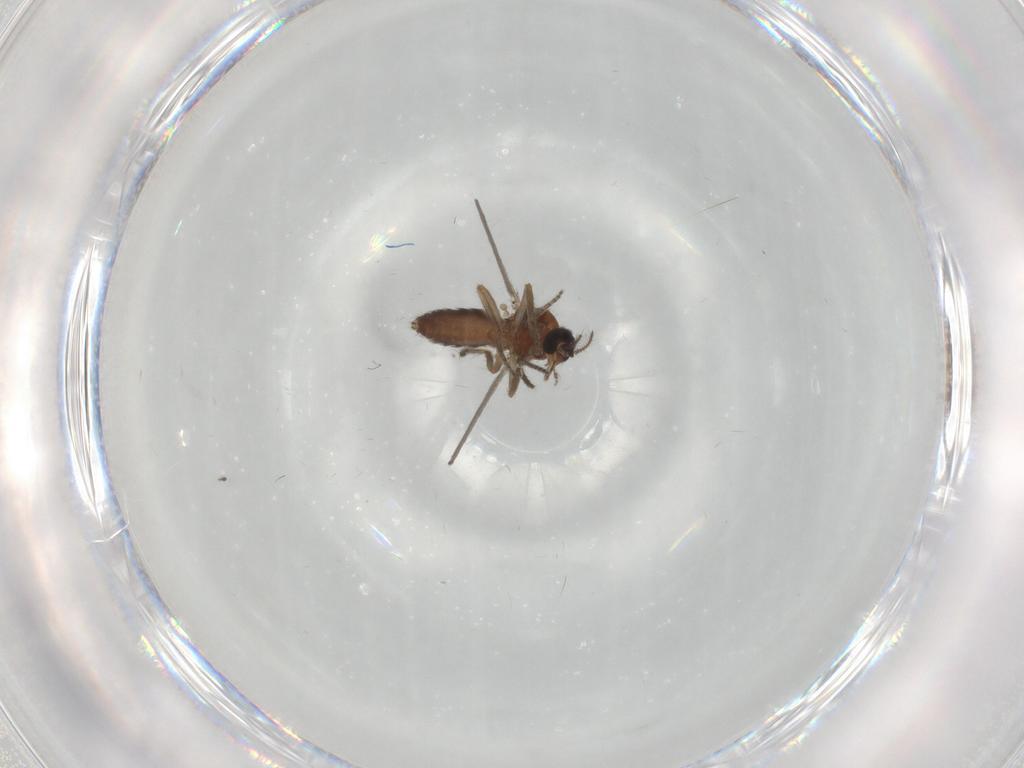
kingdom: Animalia
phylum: Arthropoda
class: Insecta
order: Diptera
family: Ceratopogonidae
